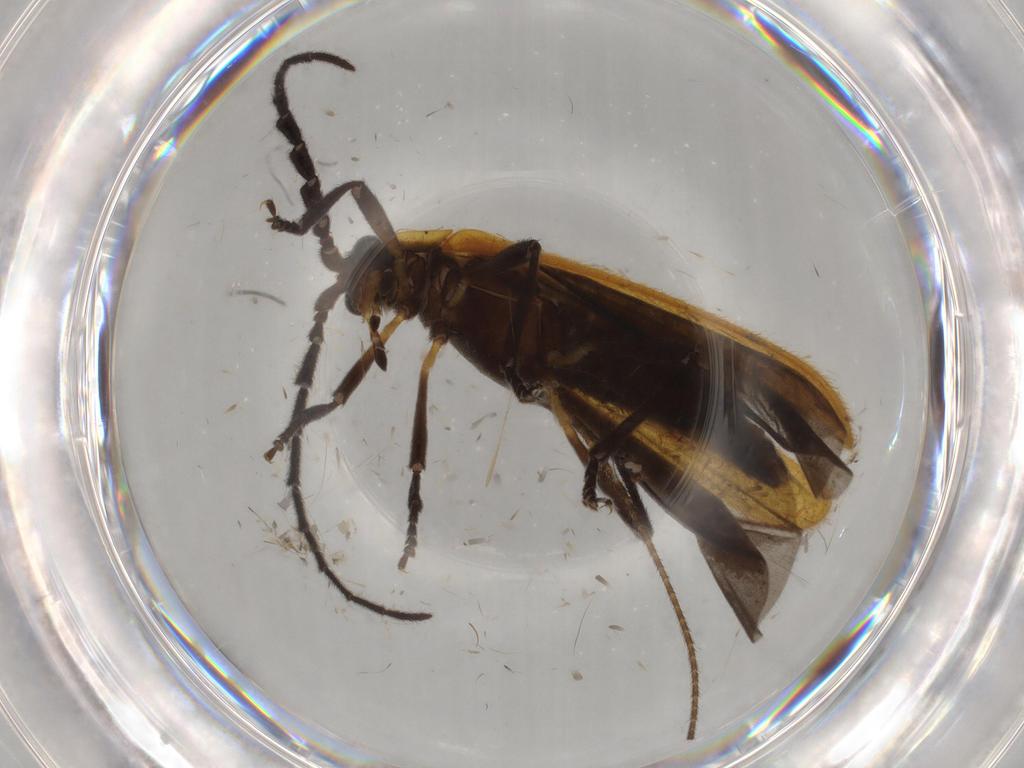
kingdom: Animalia
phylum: Arthropoda
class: Insecta
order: Coleoptera
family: Lycidae
